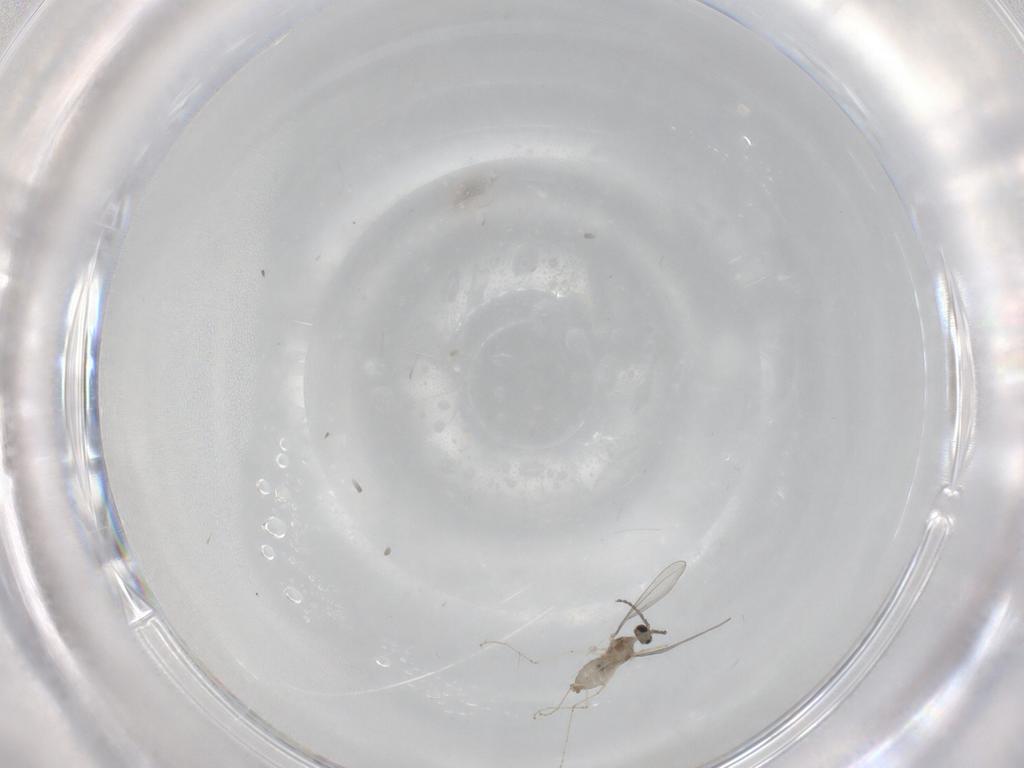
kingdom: Animalia
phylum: Arthropoda
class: Insecta
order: Diptera
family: Cecidomyiidae
